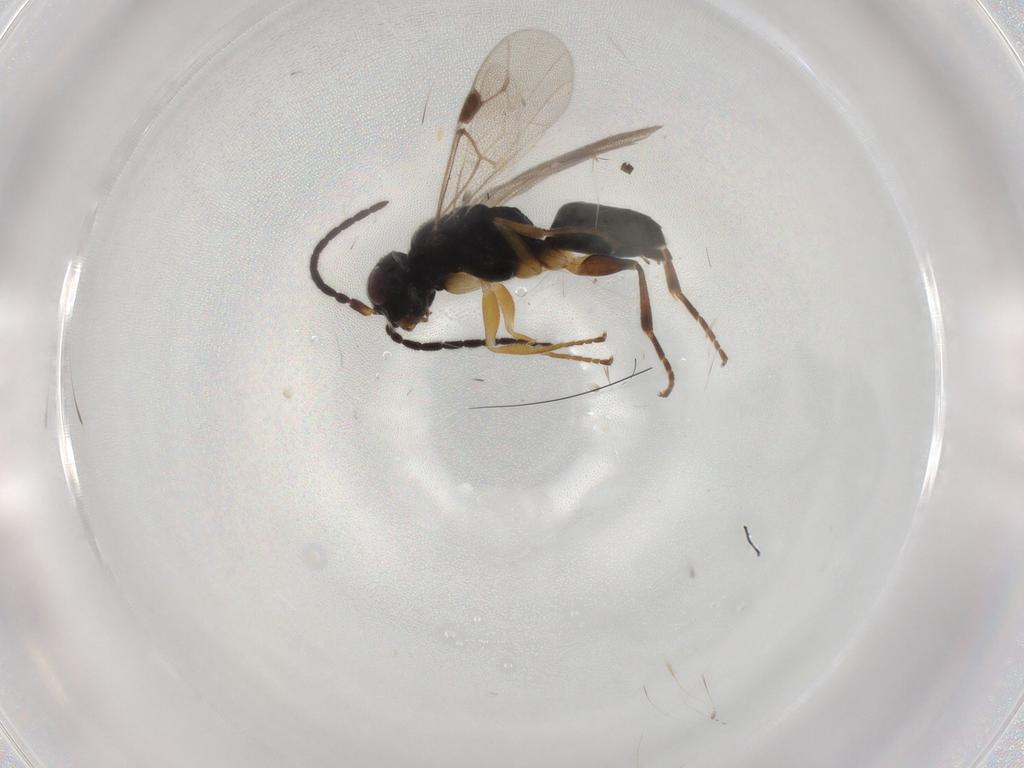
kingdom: Animalia
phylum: Arthropoda
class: Insecta
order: Hymenoptera
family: Dryinidae
